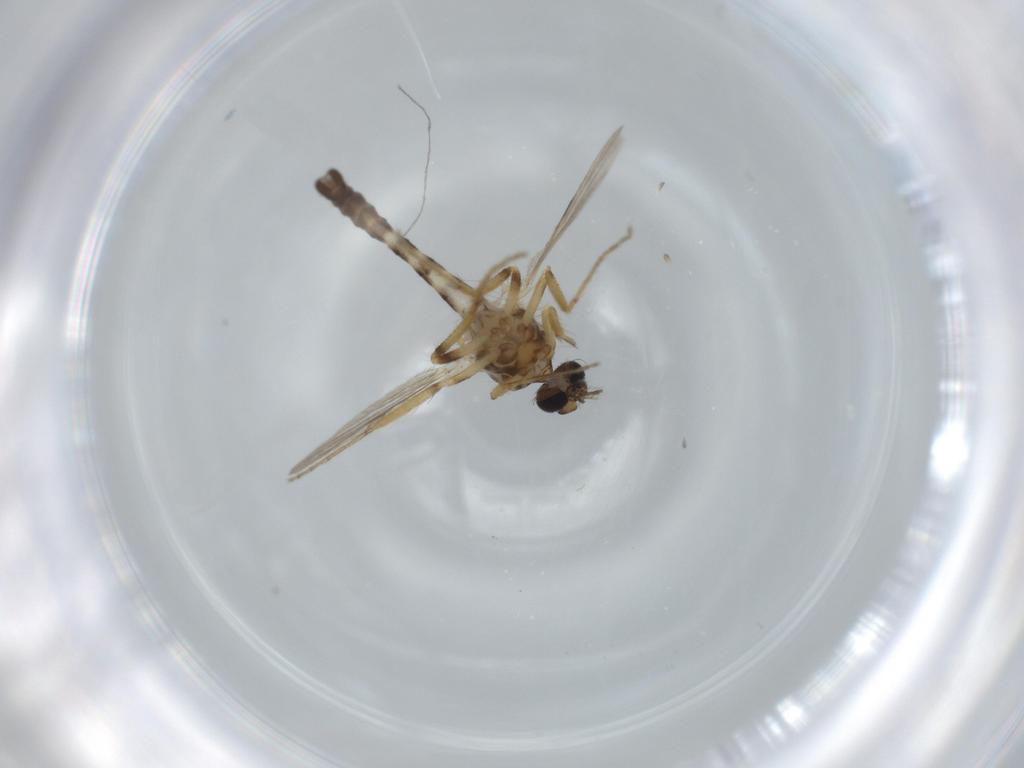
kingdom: Animalia
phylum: Arthropoda
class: Insecta
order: Diptera
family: Ceratopogonidae
